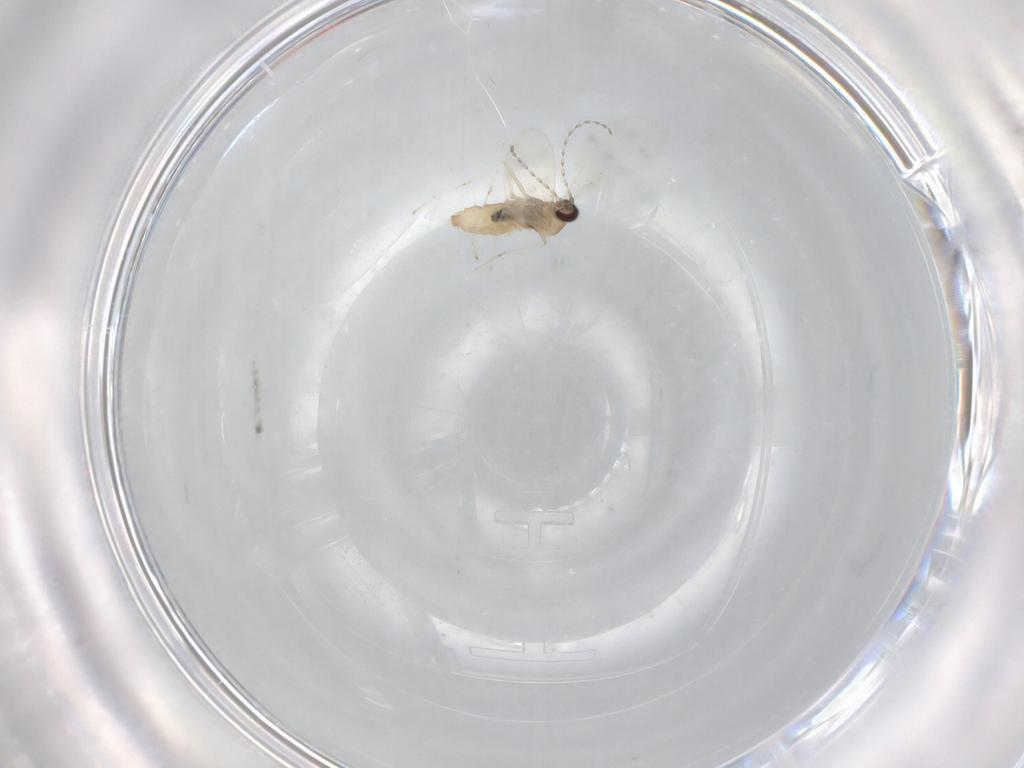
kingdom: Animalia
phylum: Arthropoda
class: Insecta
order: Diptera
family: Cecidomyiidae
